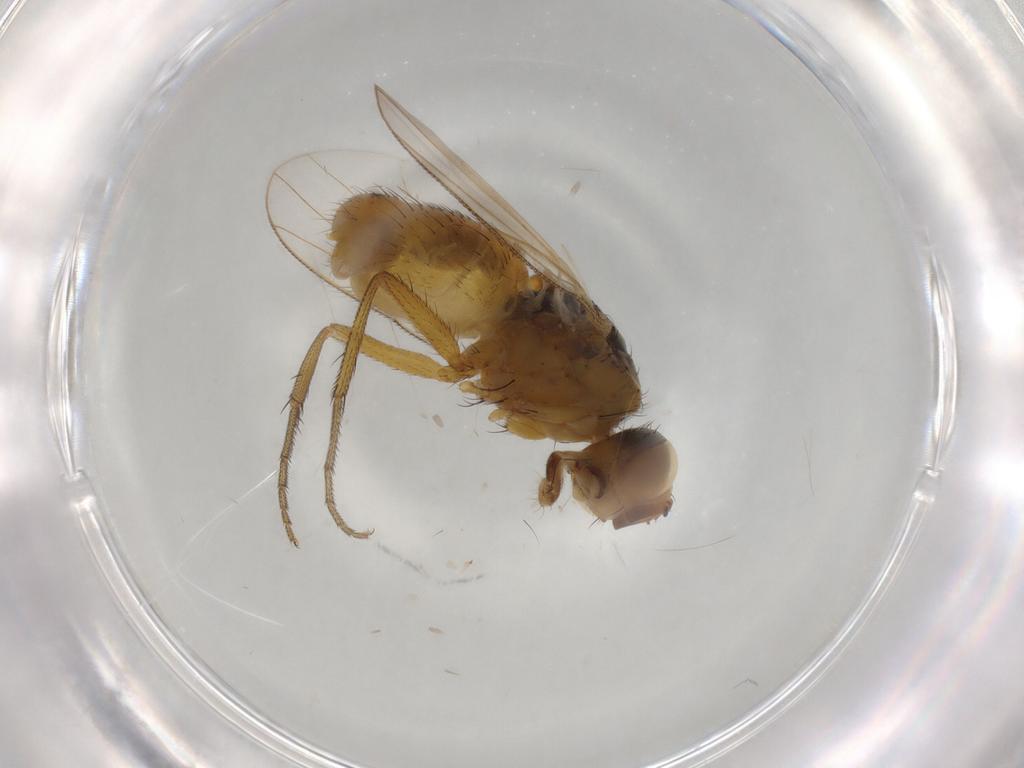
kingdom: Animalia
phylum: Arthropoda
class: Insecta
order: Diptera
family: Muscidae
